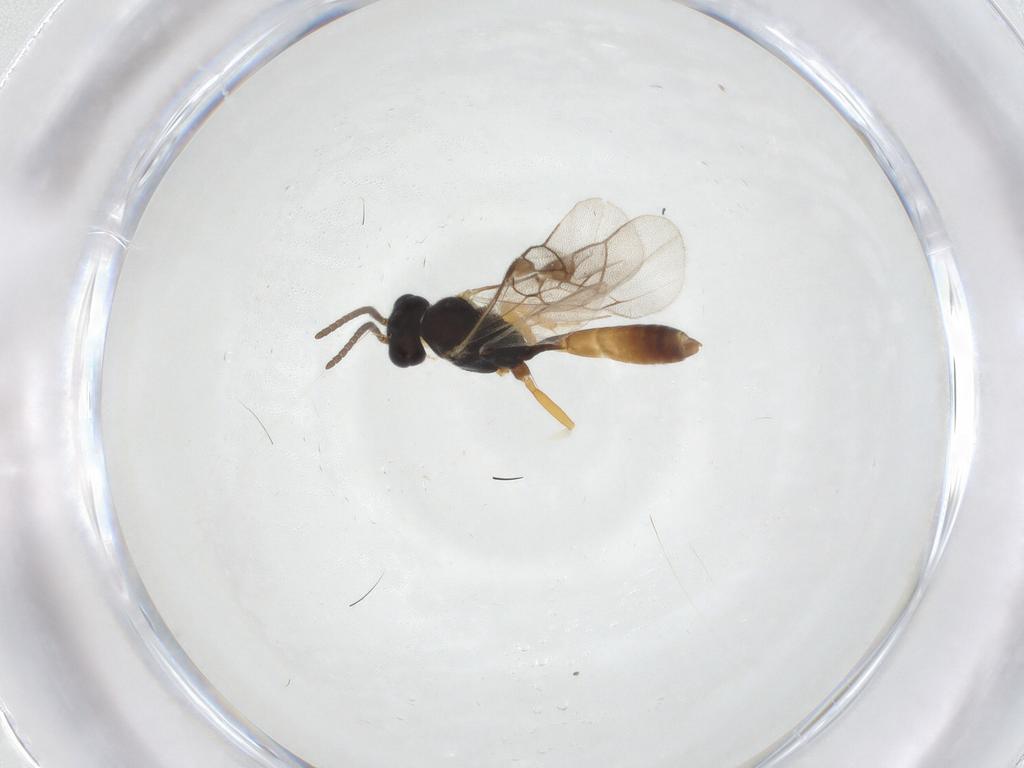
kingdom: Animalia
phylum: Arthropoda
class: Insecta
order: Hymenoptera
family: Ichneumonidae
